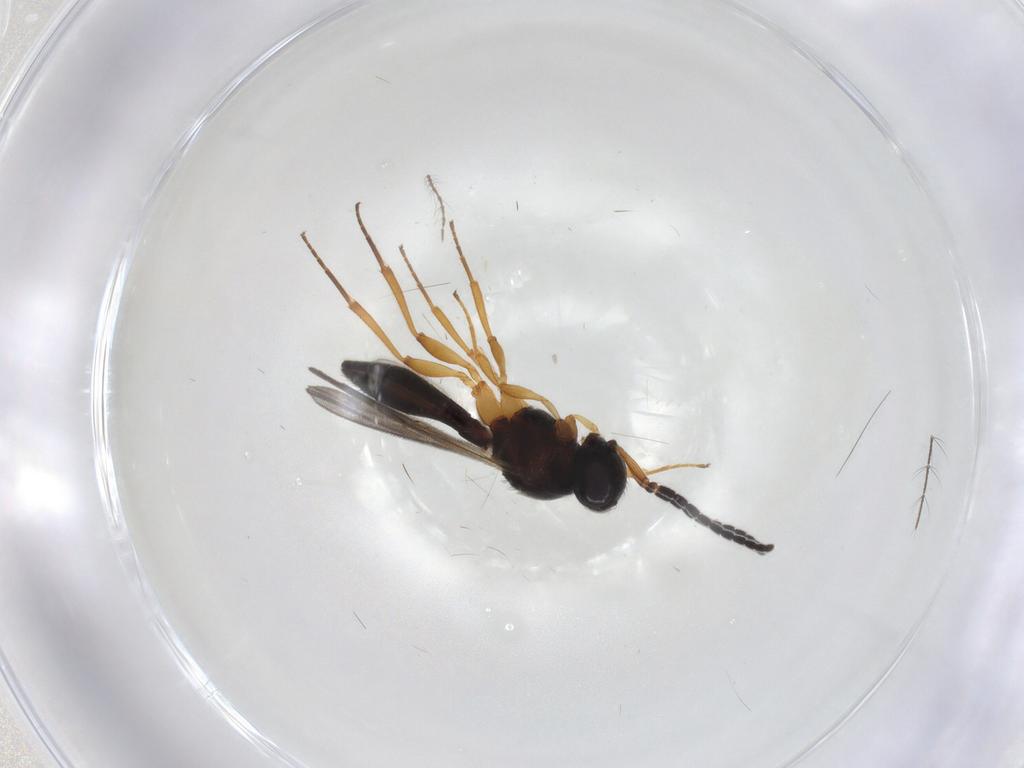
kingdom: Animalia
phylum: Arthropoda
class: Insecta
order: Hymenoptera
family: Scelionidae
